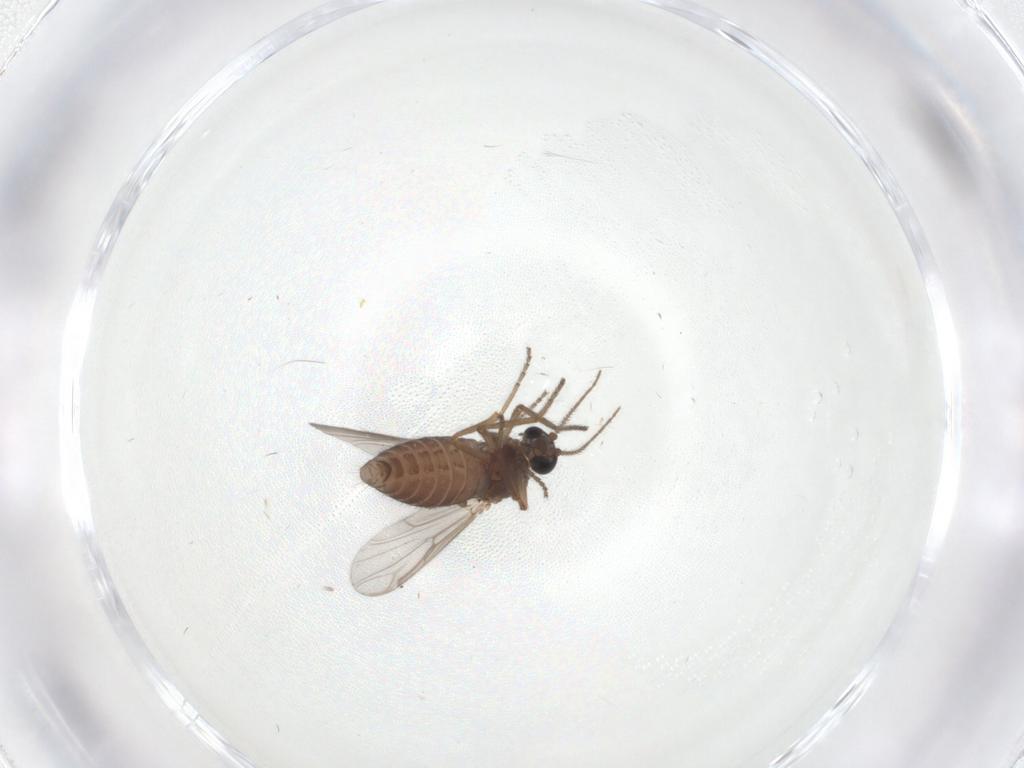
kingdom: Animalia
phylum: Arthropoda
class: Insecta
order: Diptera
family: Ceratopogonidae
